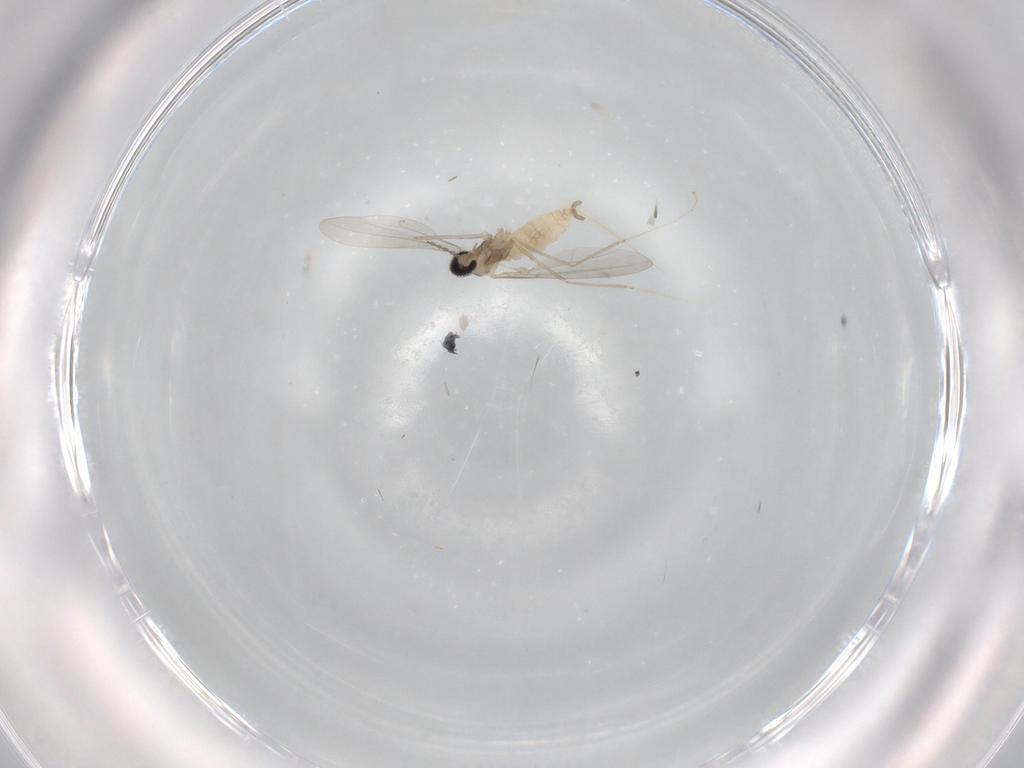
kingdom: Animalia
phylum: Arthropoda
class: Insecta
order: Diptera
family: Cecidomyiidae
